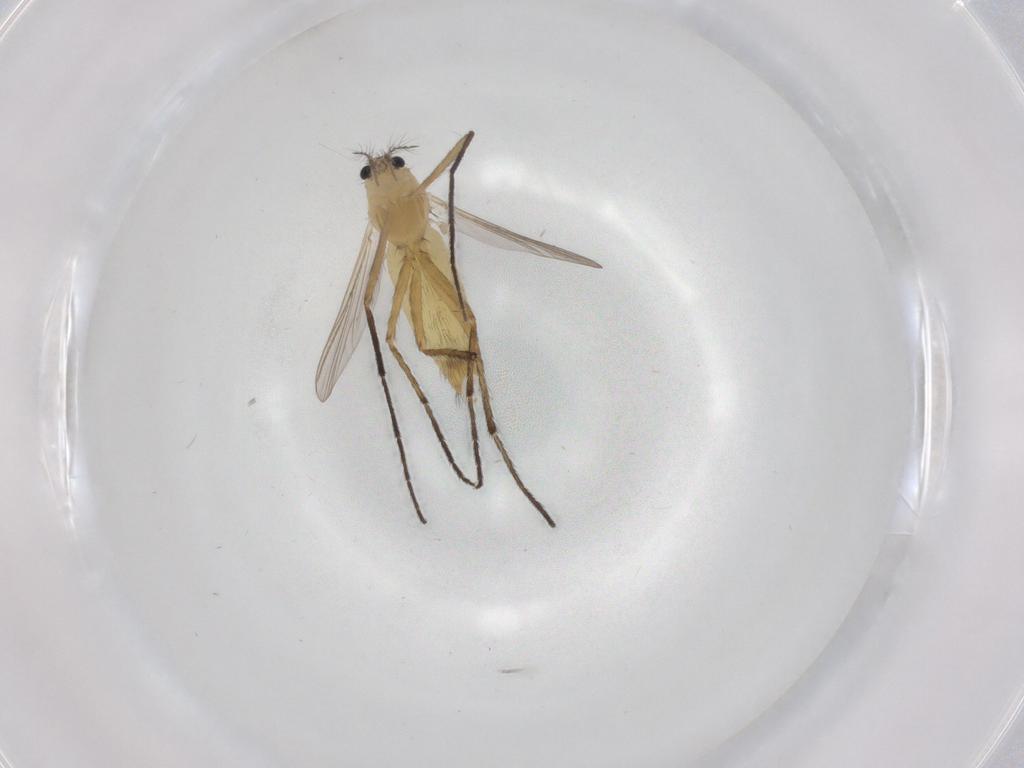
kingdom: Animalia
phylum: Arthropoda
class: Insecta
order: Diptera
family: Chironomidae
